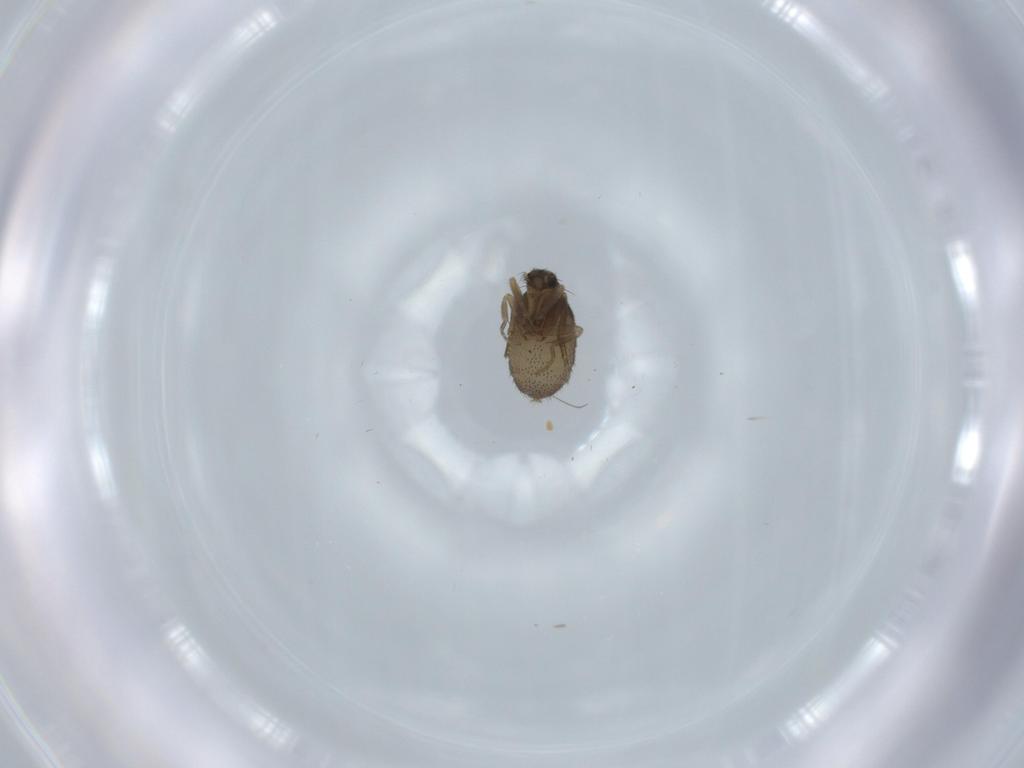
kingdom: Animalia
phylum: Arthropoda
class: Insecta
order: Diptera
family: Phoridae
